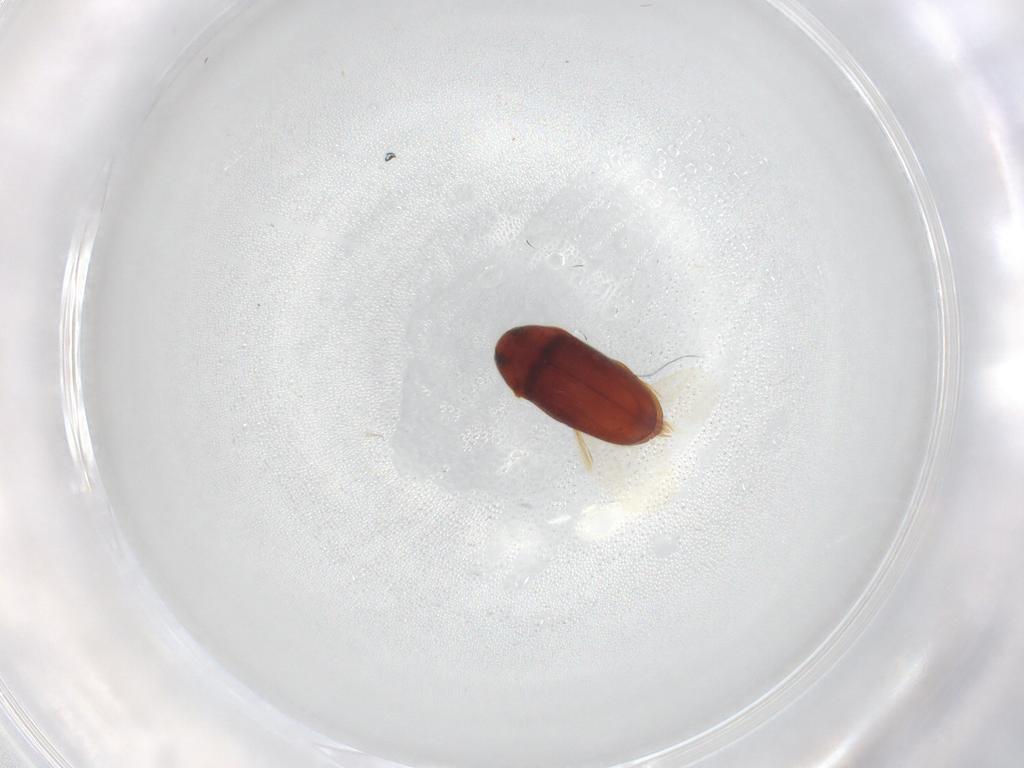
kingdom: Animalia
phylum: Arthropoda
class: Insecta
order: Coleoptera
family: Throscidae
